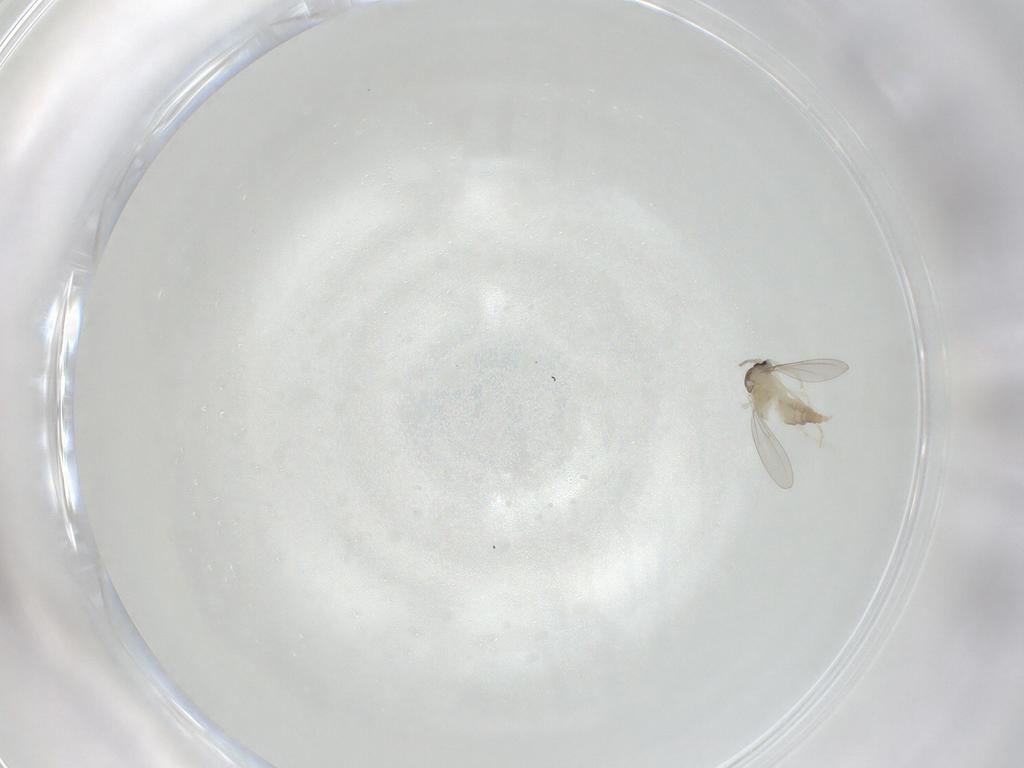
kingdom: Animalia
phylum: Arthropoda
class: Insecta
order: Diptera
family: Cecidomyiidae
